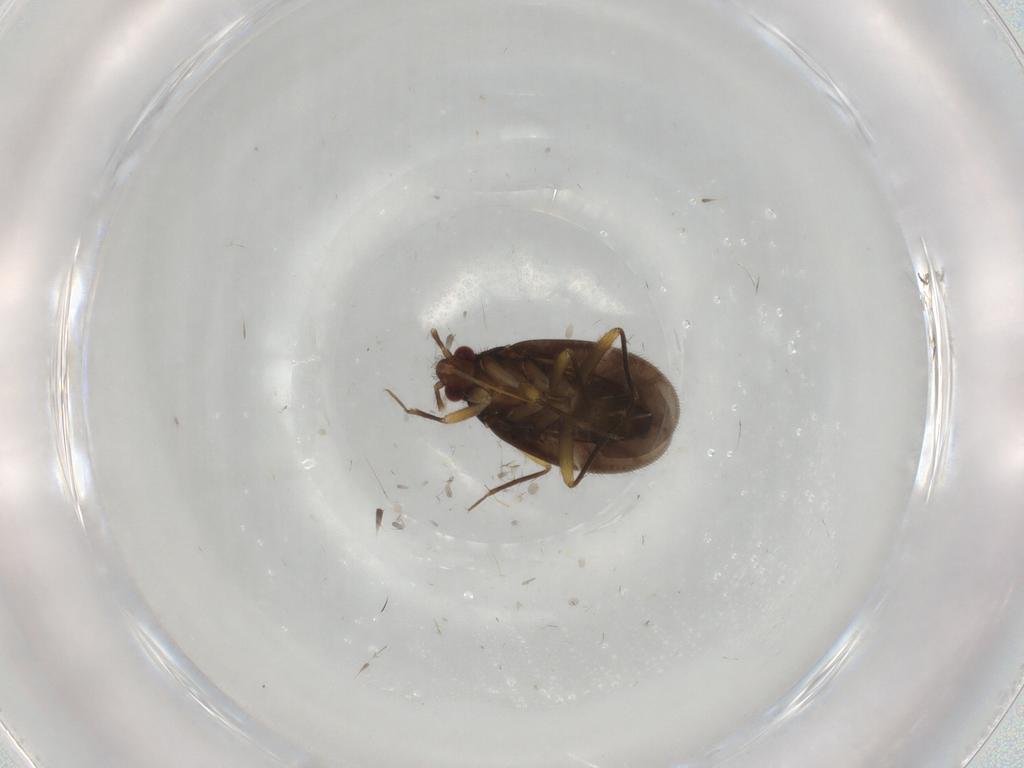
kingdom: Animalia
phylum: Arthropoda
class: Insecta
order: Hemiptera
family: Ceratocombidae
